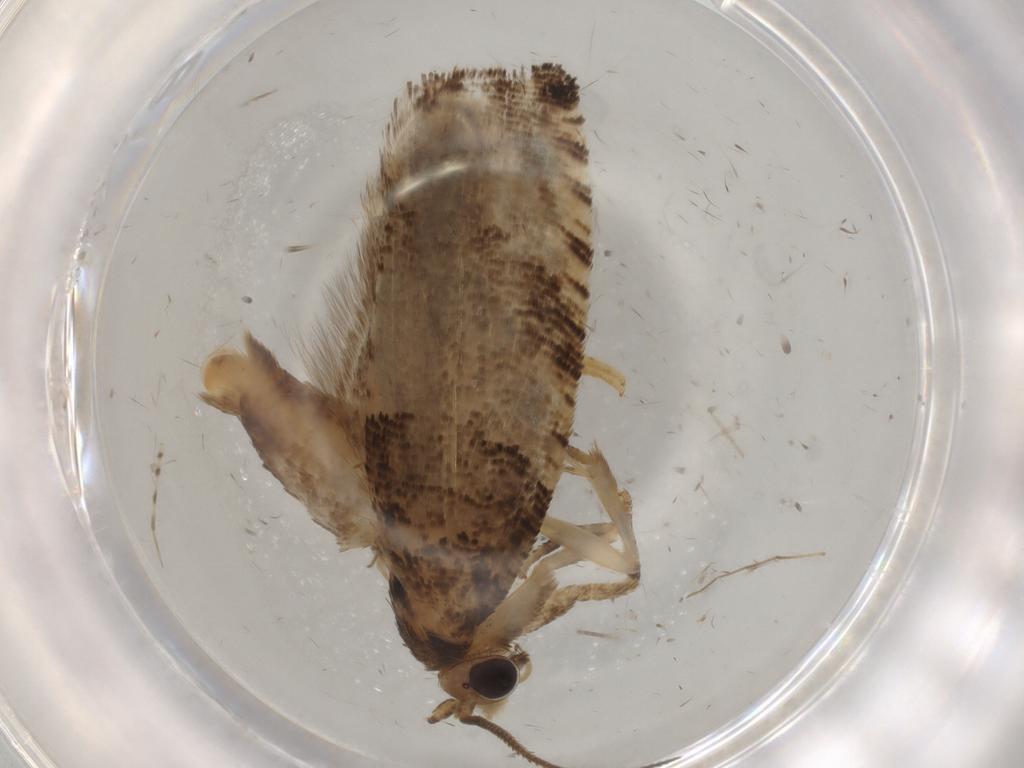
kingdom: Animalia
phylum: Arthropoda
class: Insecta
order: Lepidoptera
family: Tortricidae
